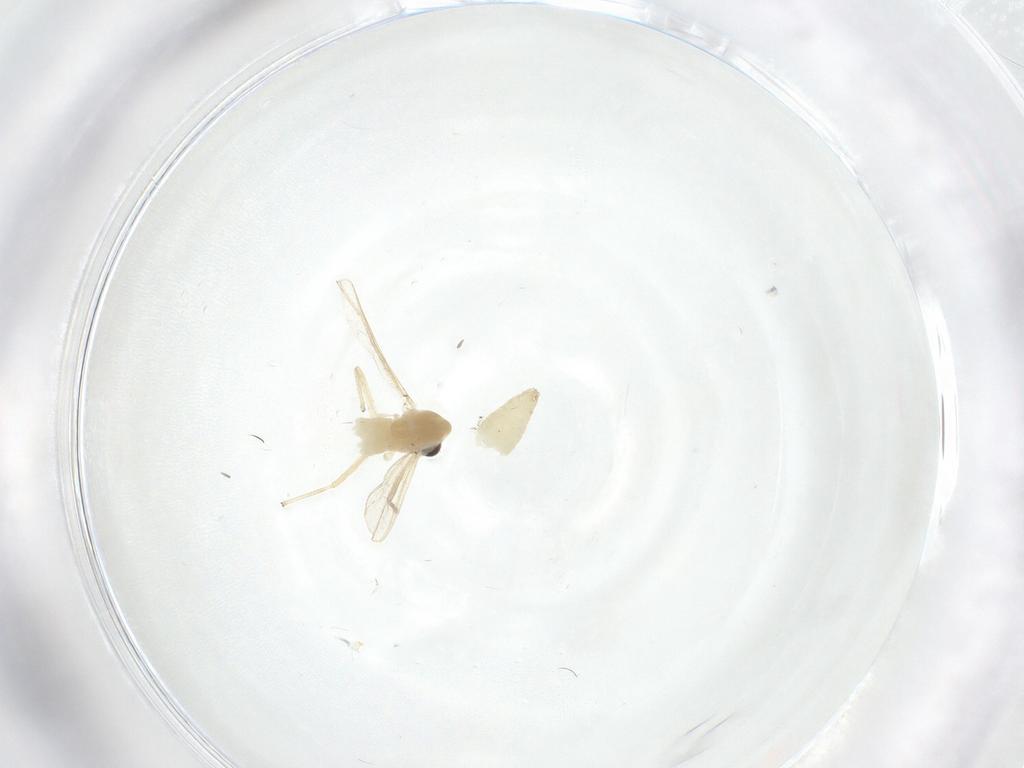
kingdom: Animalia
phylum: Arthropoda
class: Insecta
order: Diptera
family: Chironomidae
